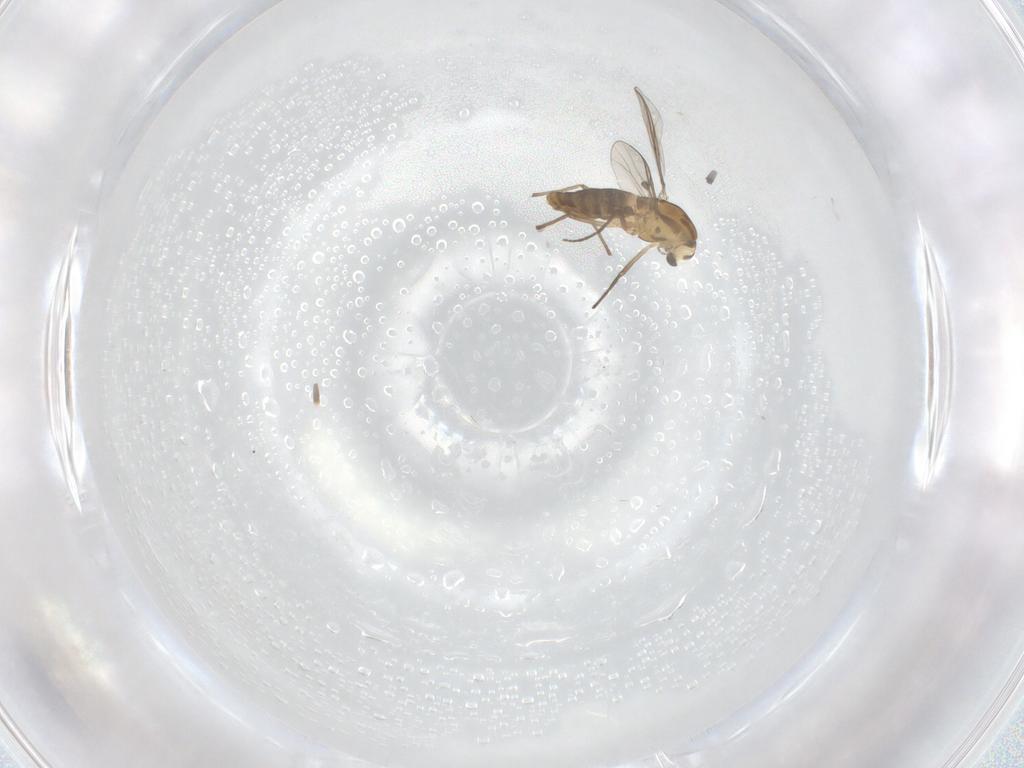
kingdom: Animalia
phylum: Arthropoda
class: Insecta
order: Diptera
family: Chironomidae
